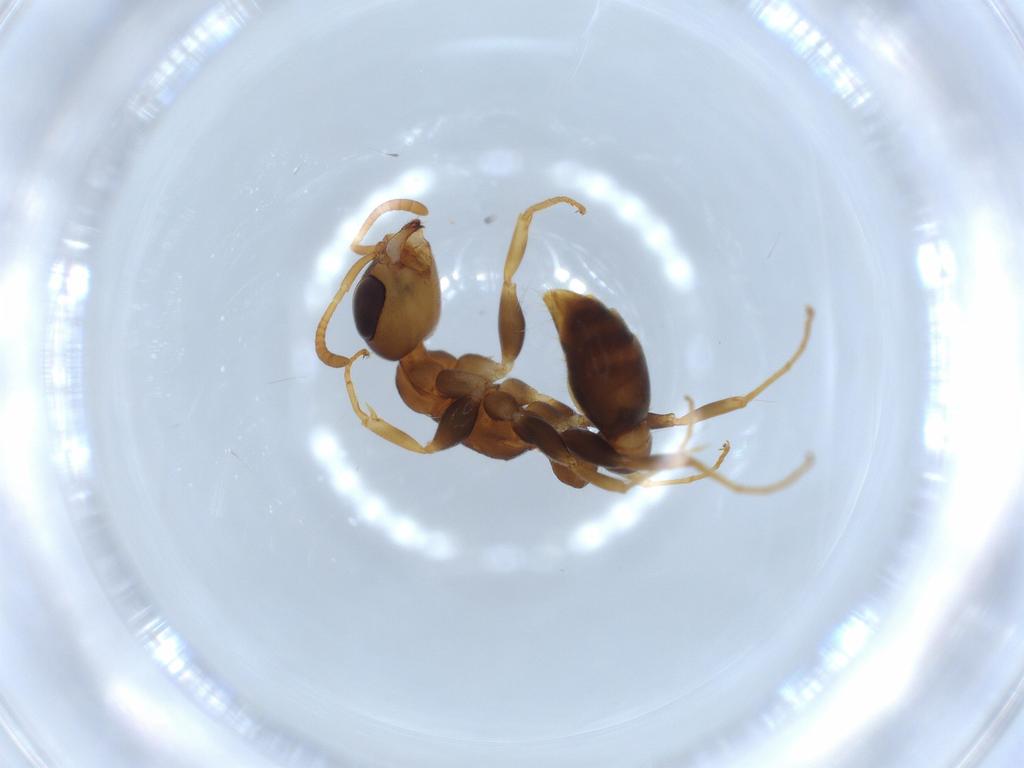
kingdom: Animalia
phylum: Arthropoda
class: Insecta
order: Hymenoptera
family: Formicidae
